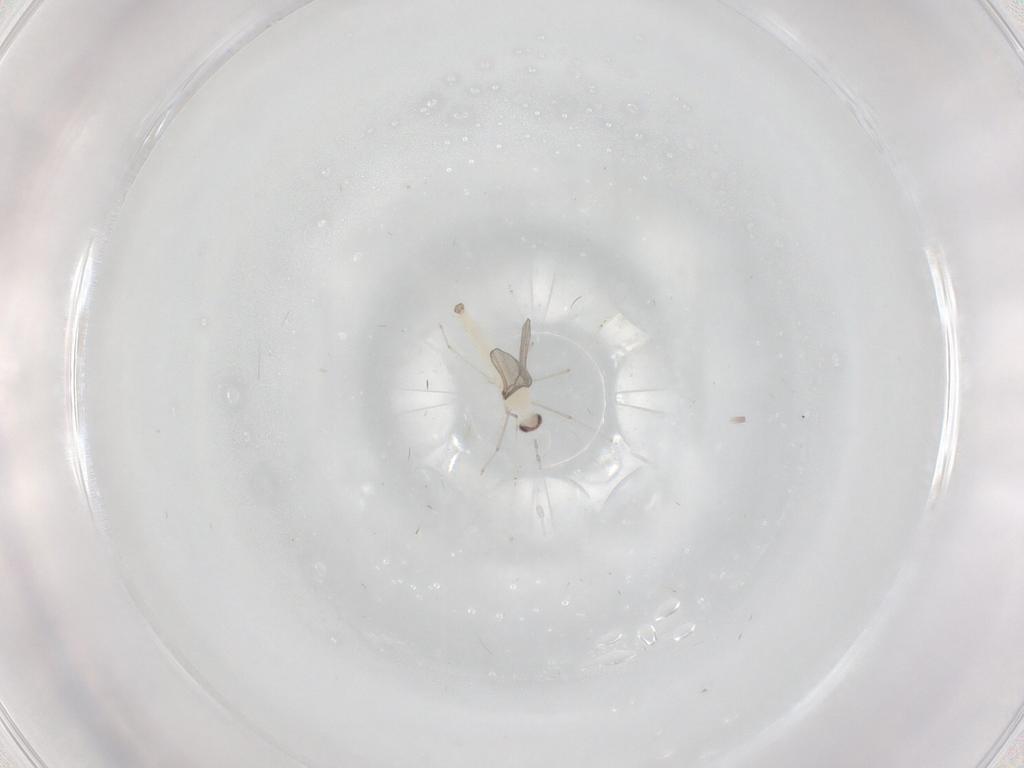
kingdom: Animalia
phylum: Arthropoda
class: Insecta
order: Diptera
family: Cecidomyiidae
